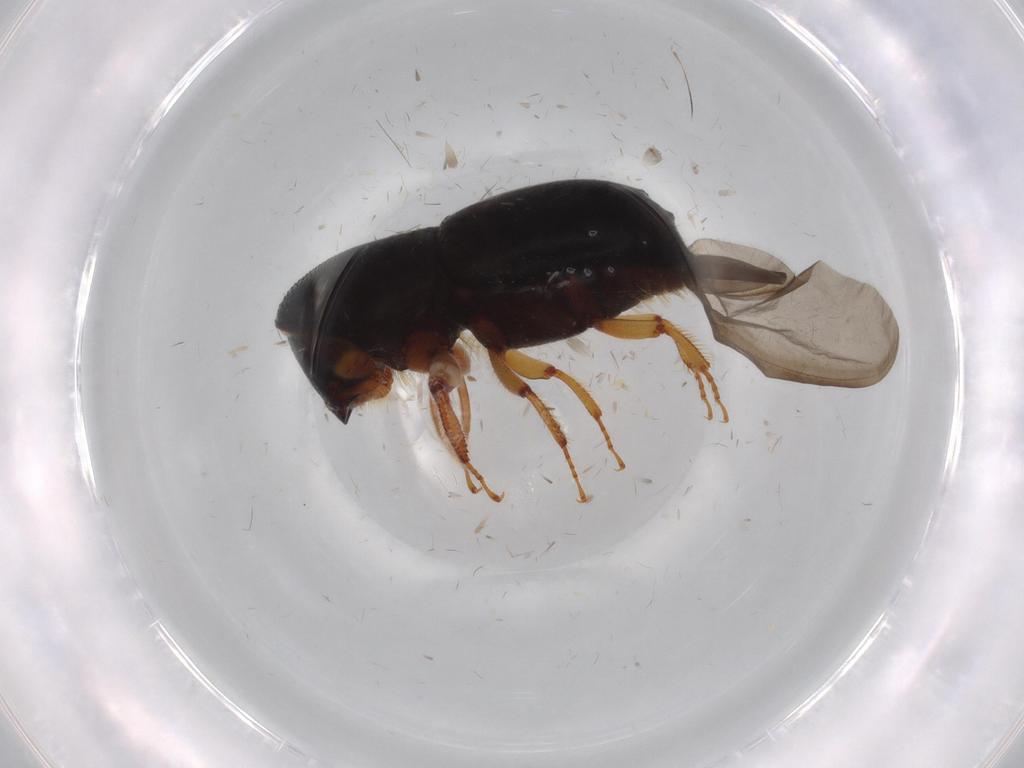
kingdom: Animalia
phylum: Arthropoda
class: Insecta
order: Coleoptera
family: Curculionidae
